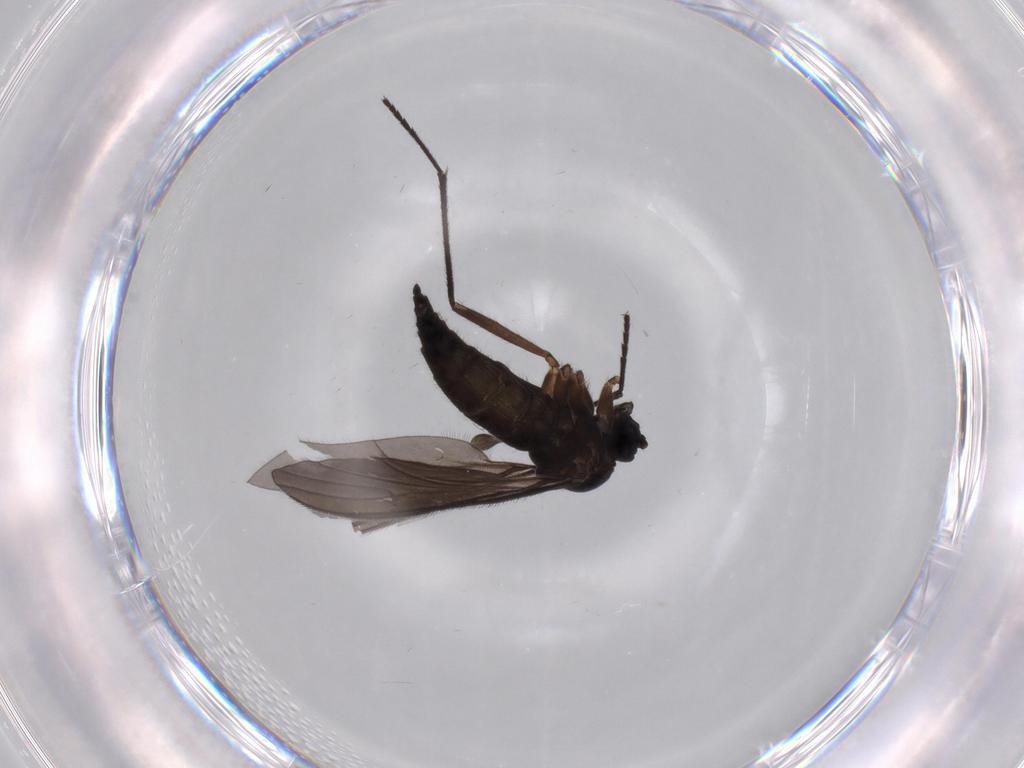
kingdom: Animalia
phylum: Arthropoda
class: Insecta
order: Diptera
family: Sciaridae
